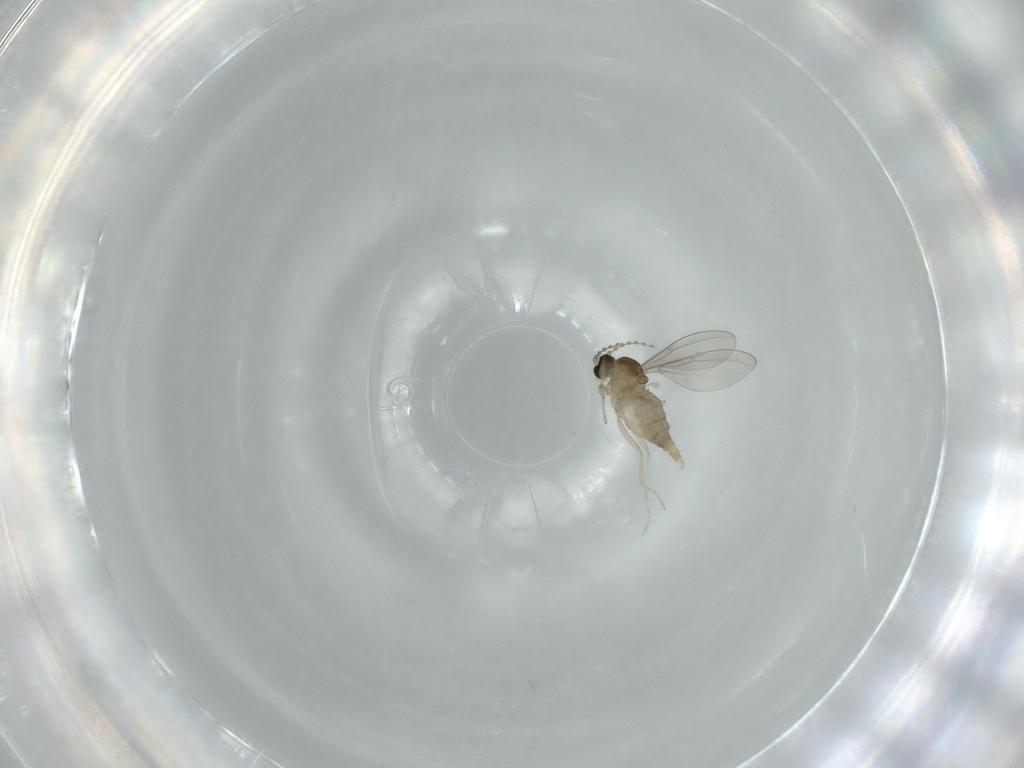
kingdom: Animalia
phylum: Arthropoda
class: Insecta
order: Diptera
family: Cecidomyiidae
